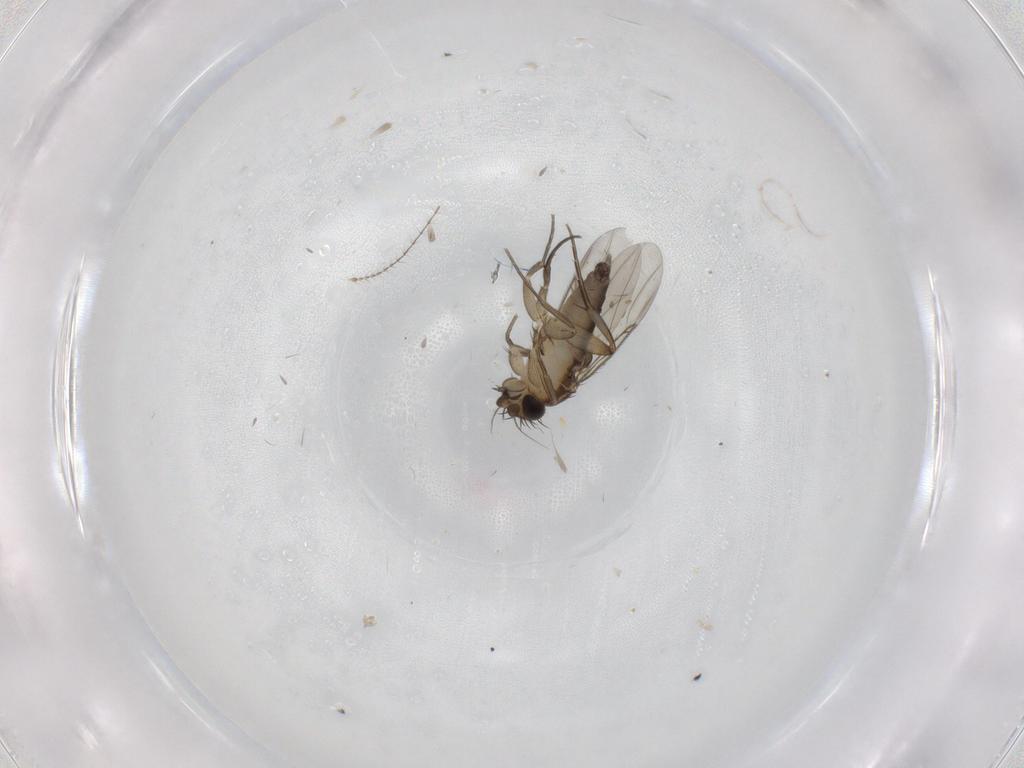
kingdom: Animalia
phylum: Arthropoda
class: Insecta
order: Diptera
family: Phoridae
